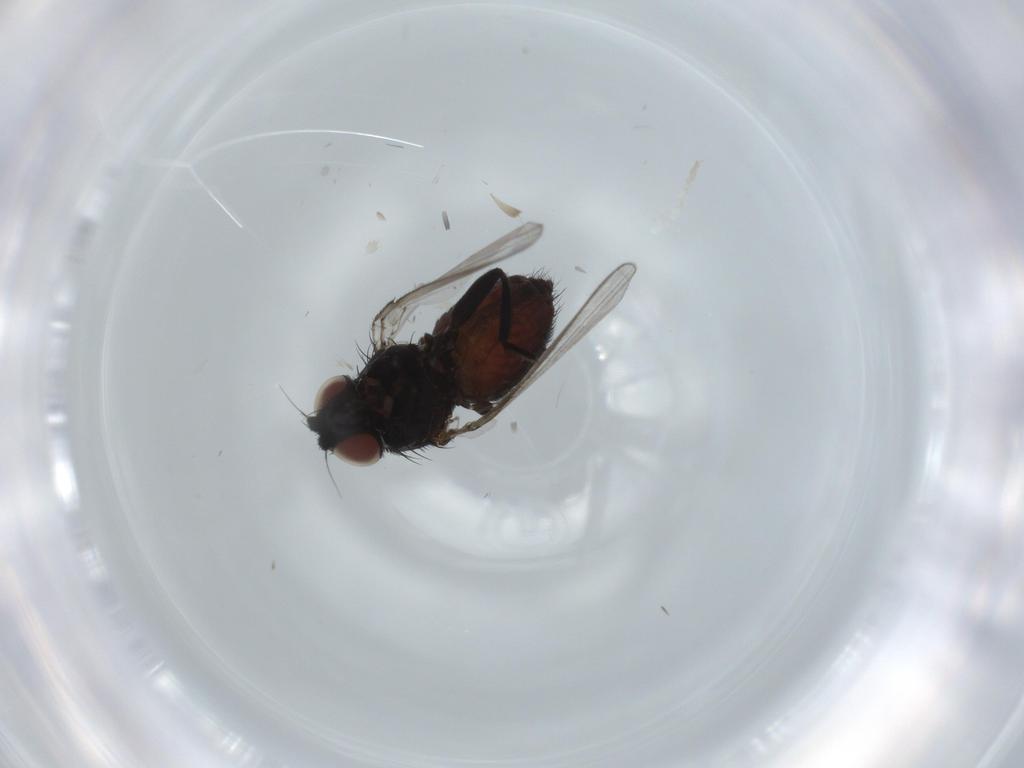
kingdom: Animalia
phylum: Arthropoda
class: Insecta
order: Diptera
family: Milichiidae
